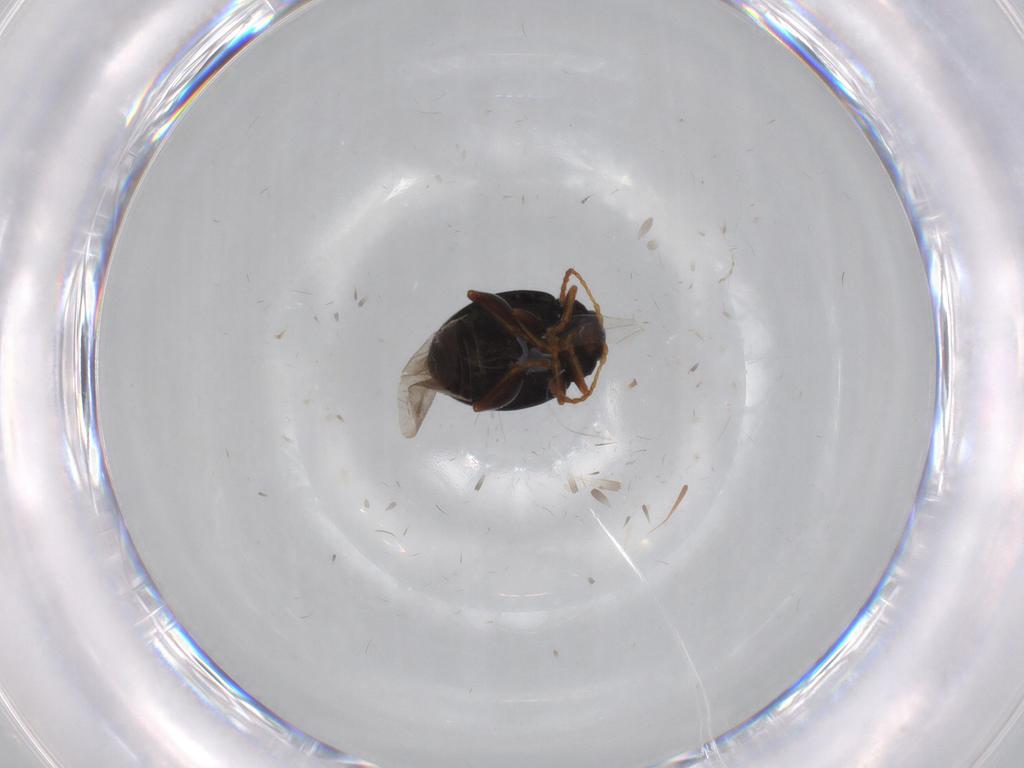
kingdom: Animalia
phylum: Arthropoda
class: Insecta
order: Coleoptera
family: Chrysomelidae
